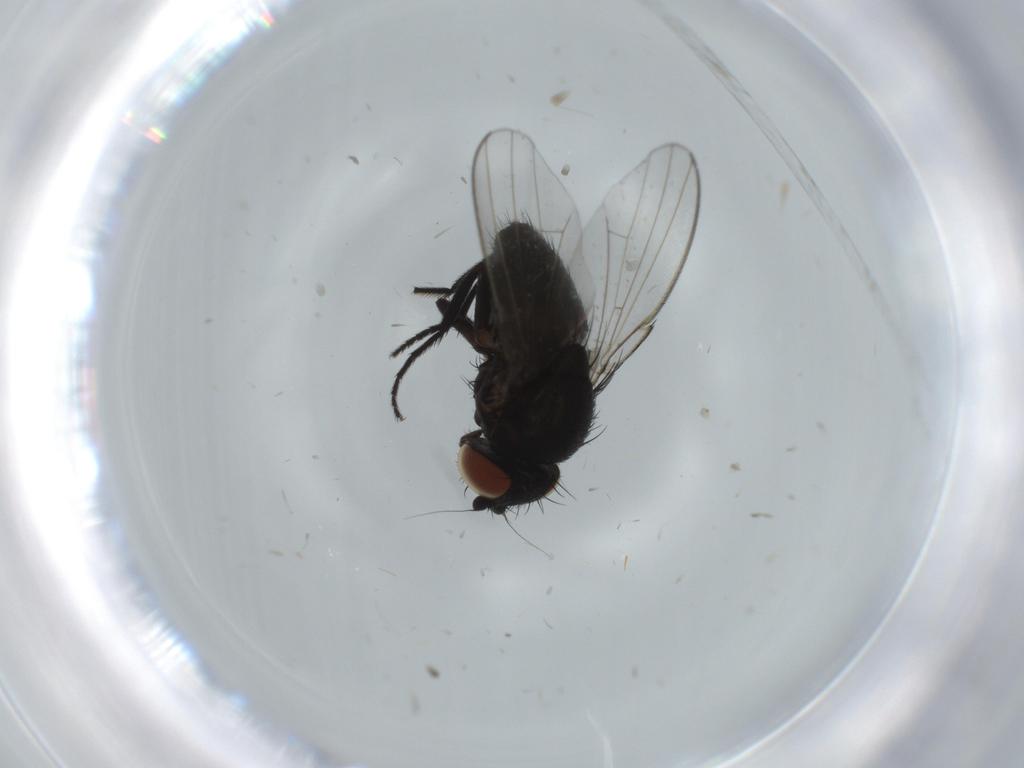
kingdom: Animalia
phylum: Arthropoda
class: Insecta
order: Diptera
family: Milichiidae
